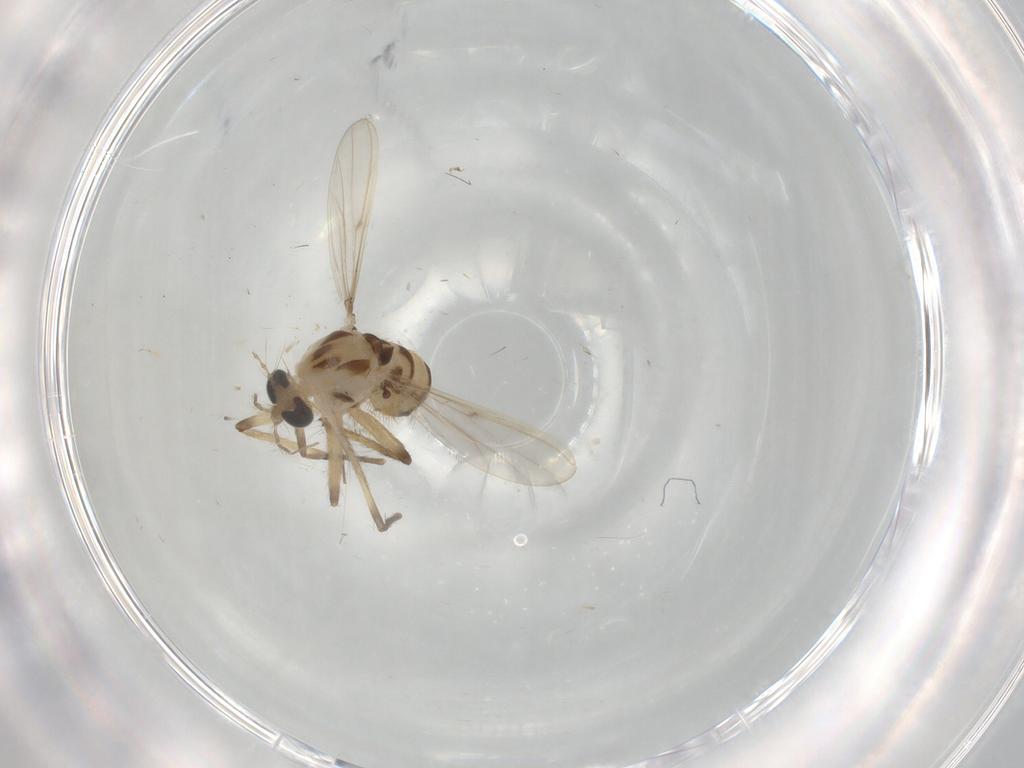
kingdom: Animalia
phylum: Arthropoda
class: Insecta
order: Diptera
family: Chironomidae
